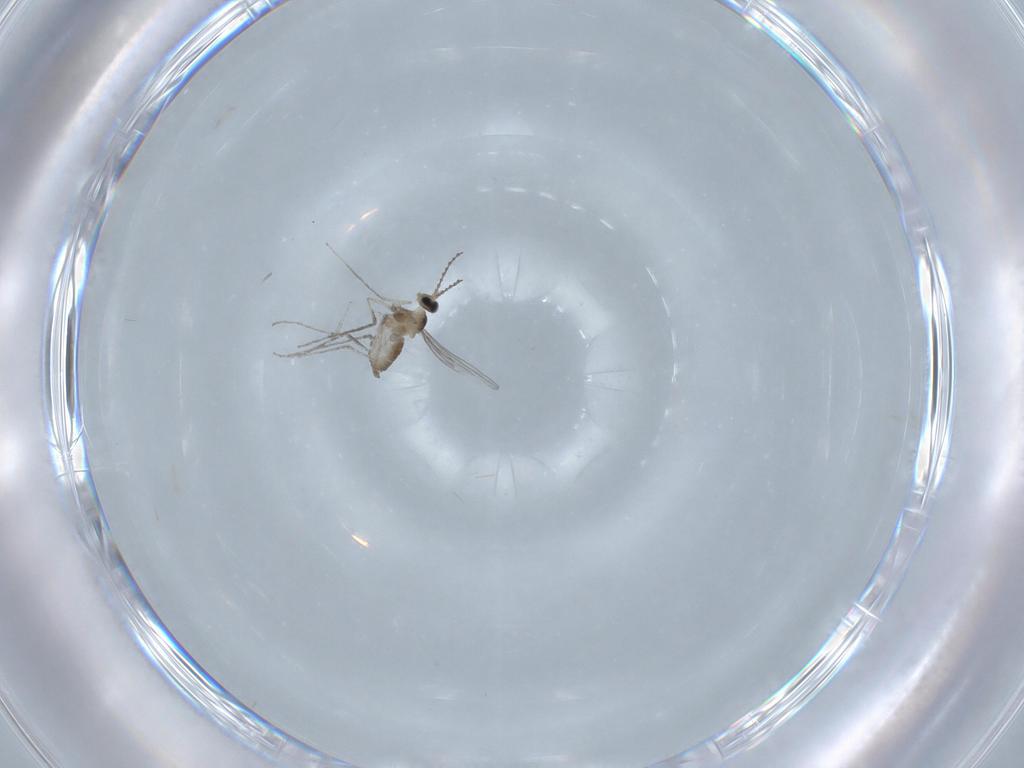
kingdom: Animalia
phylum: Arthropoda
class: Insecta
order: Diptera
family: Cecidomyiidae
